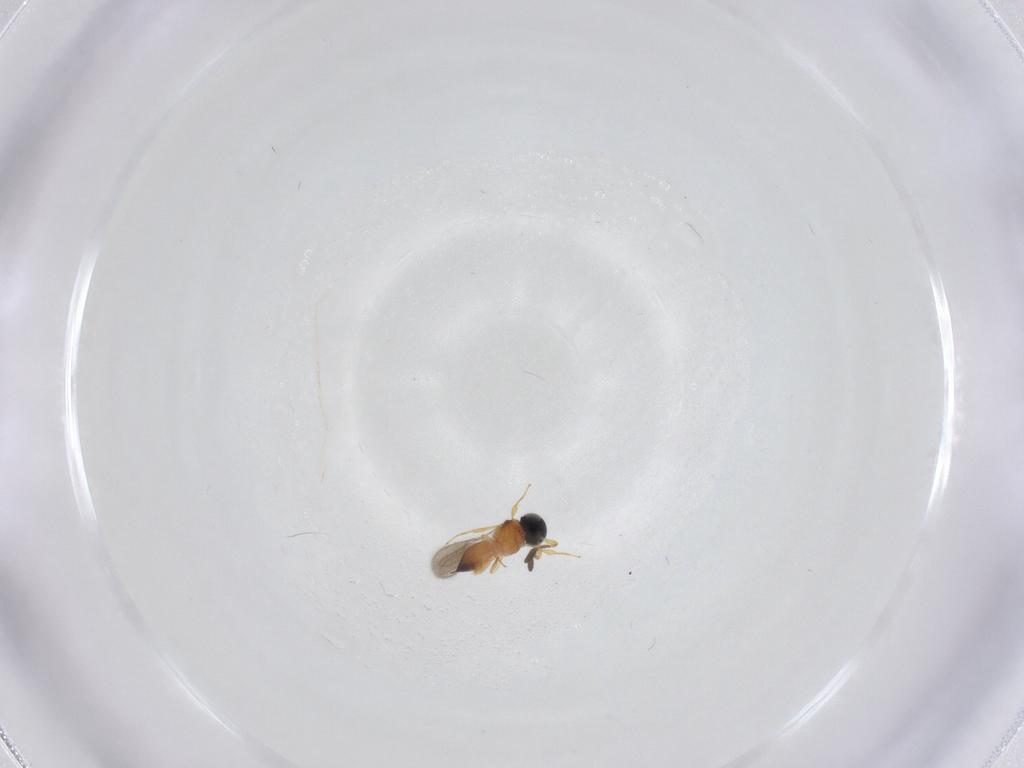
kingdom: Animalia
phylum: Arthropoda
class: Insecta
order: Hymenoptera
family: Scelionidae
